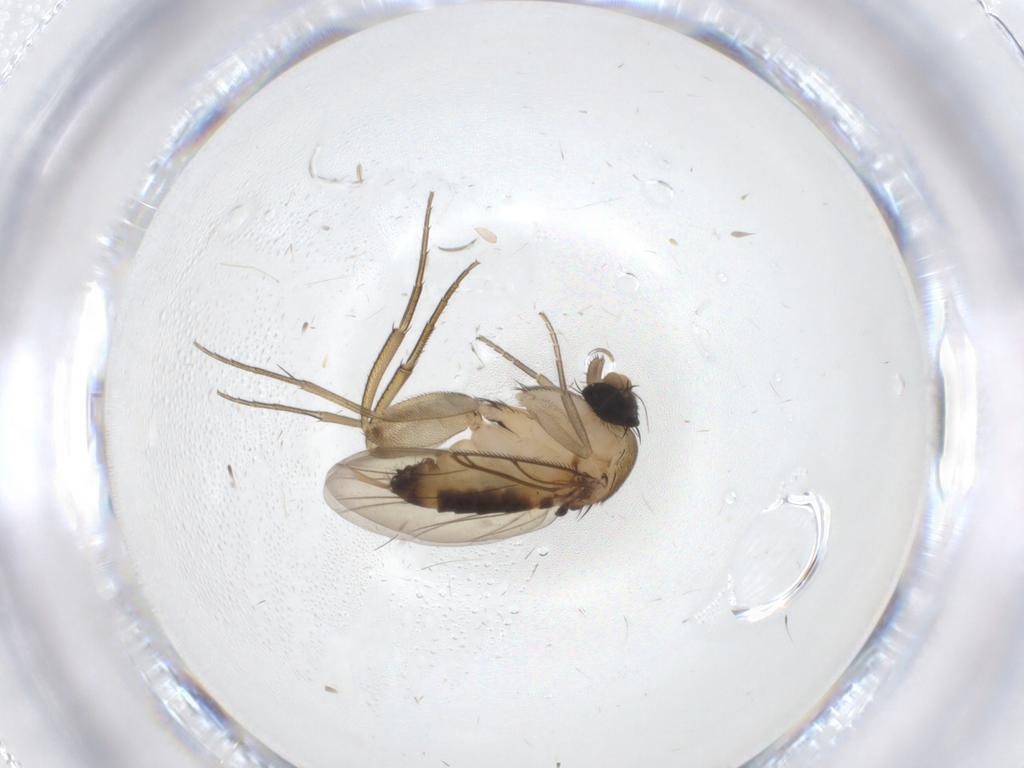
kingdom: Animalia
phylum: Arthropoda
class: Insecta
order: Diptera
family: Phoridae
